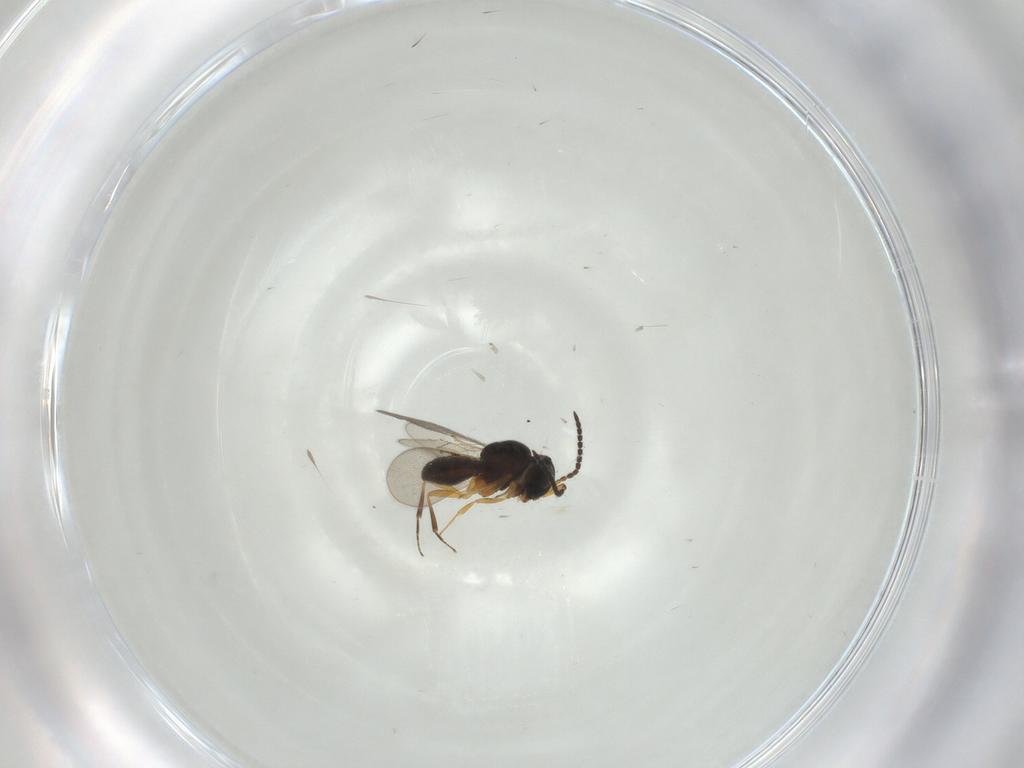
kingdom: Animalia
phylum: Arthropoda
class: Insecta
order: Hymenoptera
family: Scelionidae
